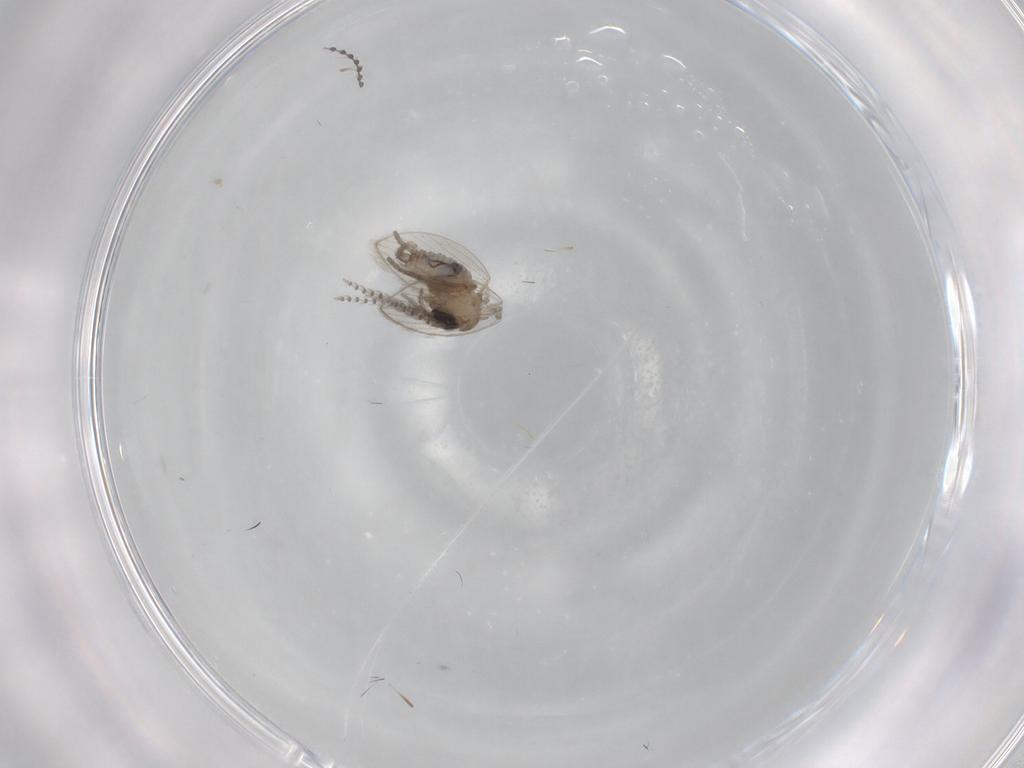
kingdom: Animalia
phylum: Arthropoda
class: Insecta
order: Diptera
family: Psychodidae
